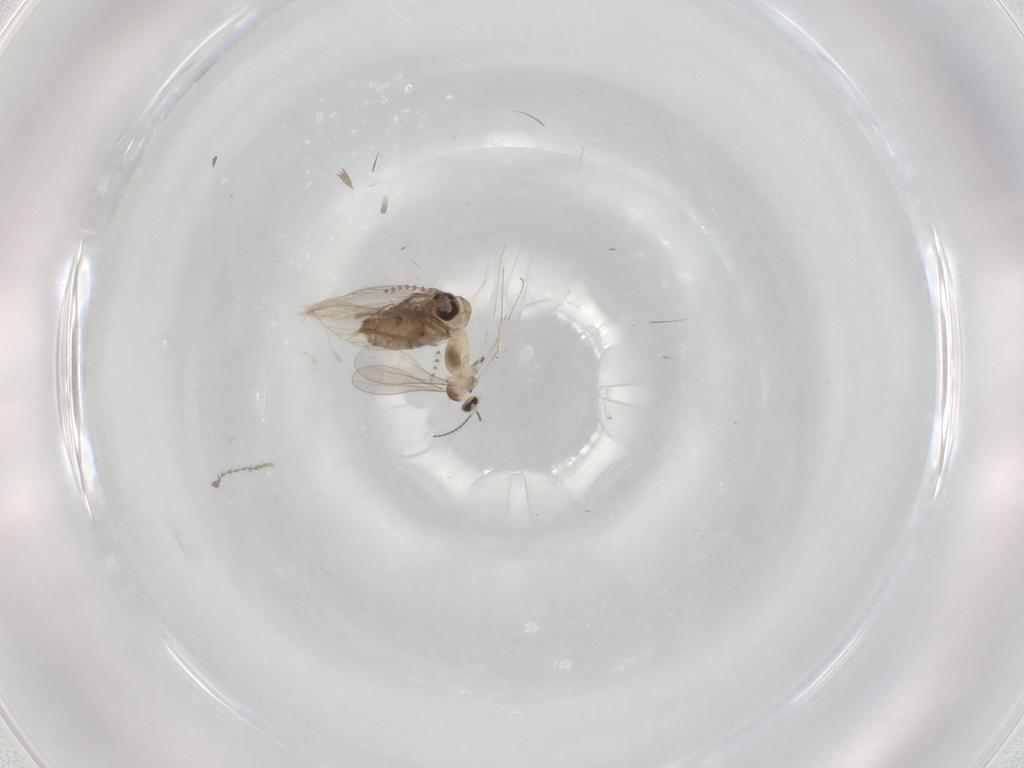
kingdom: Animalia
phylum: Arthropoda
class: Insecta
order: Diptera
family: Psychodidae
